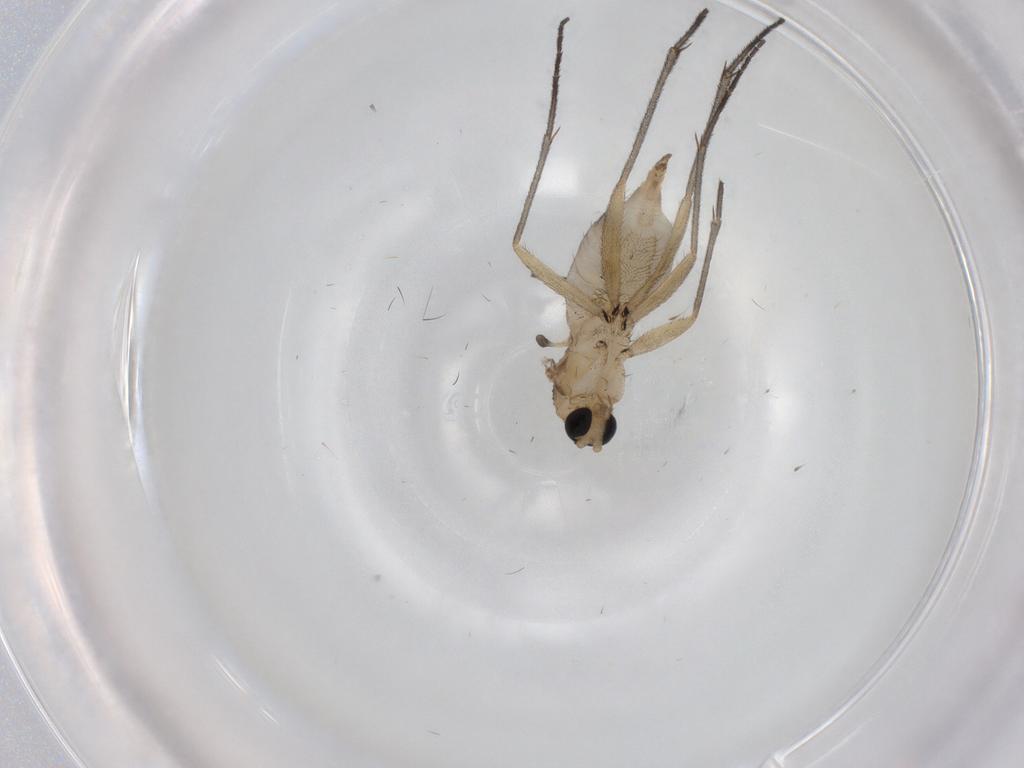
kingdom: Animalia
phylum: Arthropoda
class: Insecta
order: Diptera
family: Sciaridae
